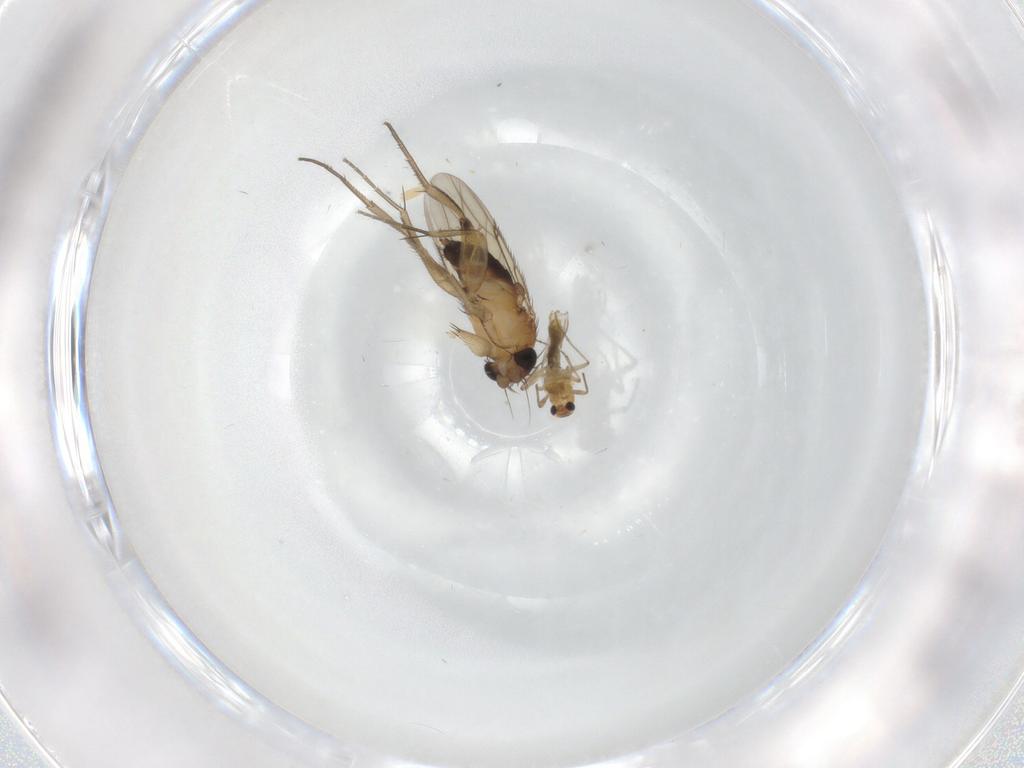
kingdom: Animalia
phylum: Arthropoda
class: Insecta
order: Diptera
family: Chironomidae
